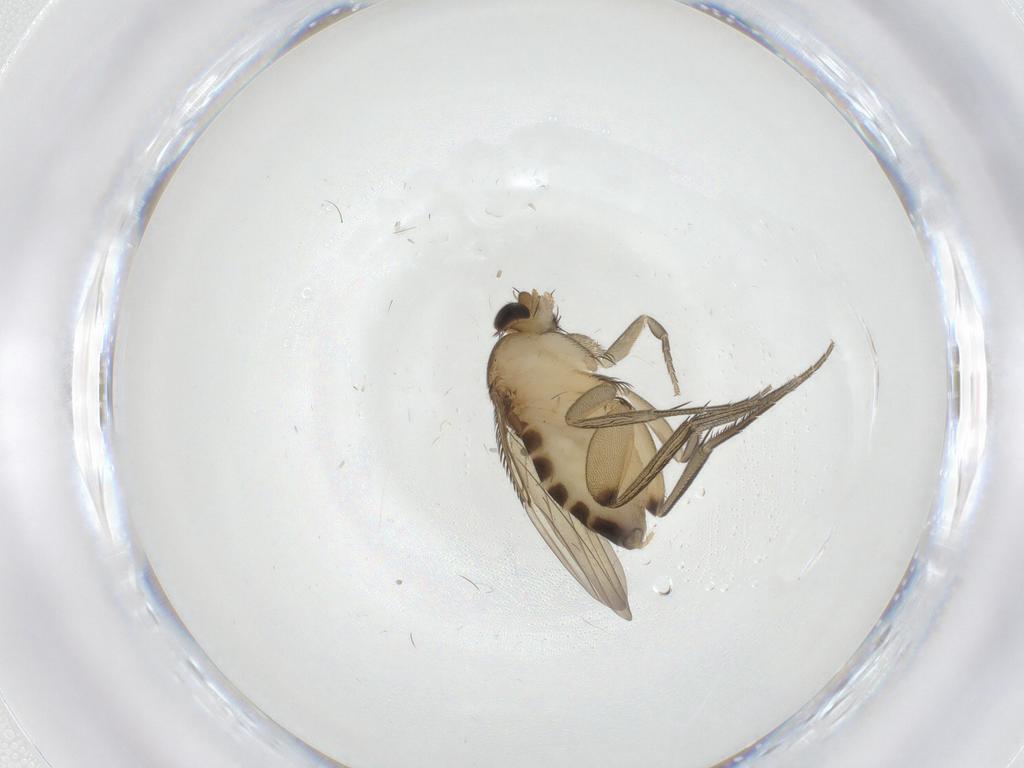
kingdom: Animalia
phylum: Arthropoda
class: Insecta
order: Diptera
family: Phoridae
